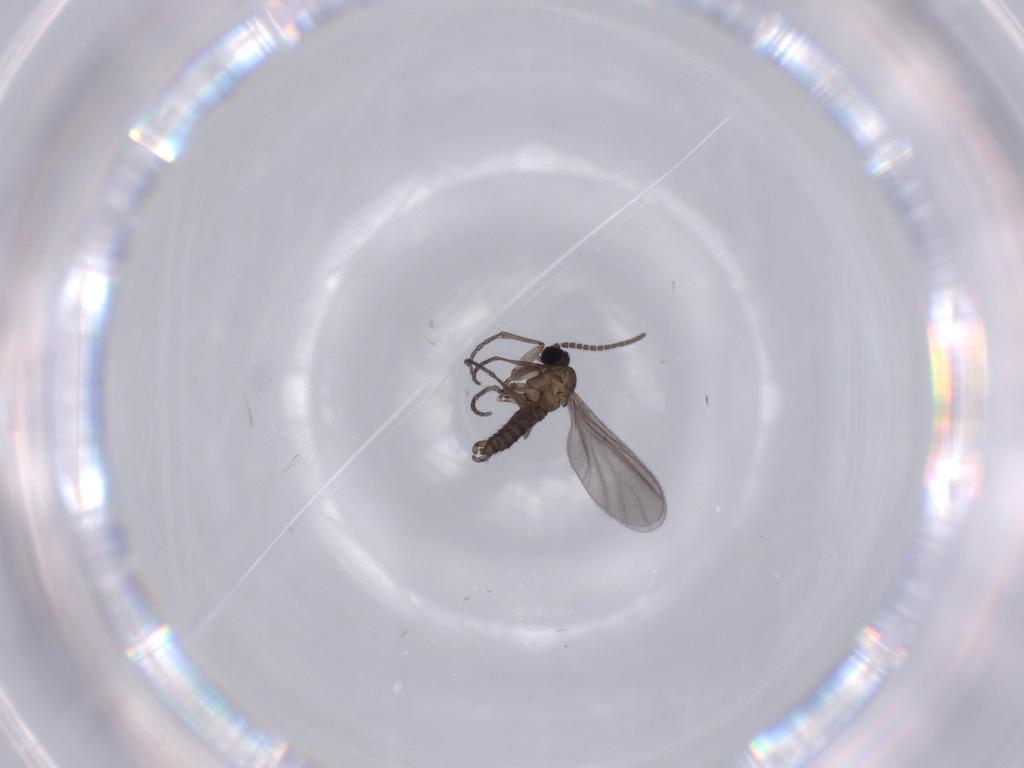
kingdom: Animalia
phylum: Arthropoda
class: Insecta
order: Diptera
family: Sciaridae
